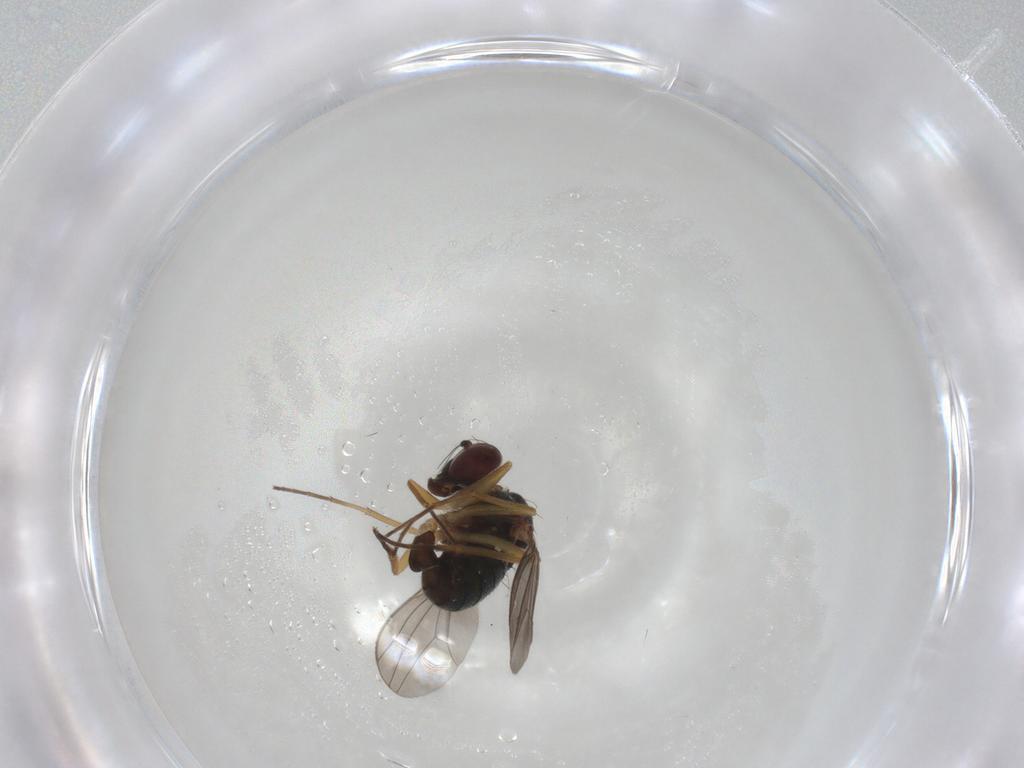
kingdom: Animalia
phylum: Arthropoda
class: Insecta
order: Diptera
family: Dolichopodidae
